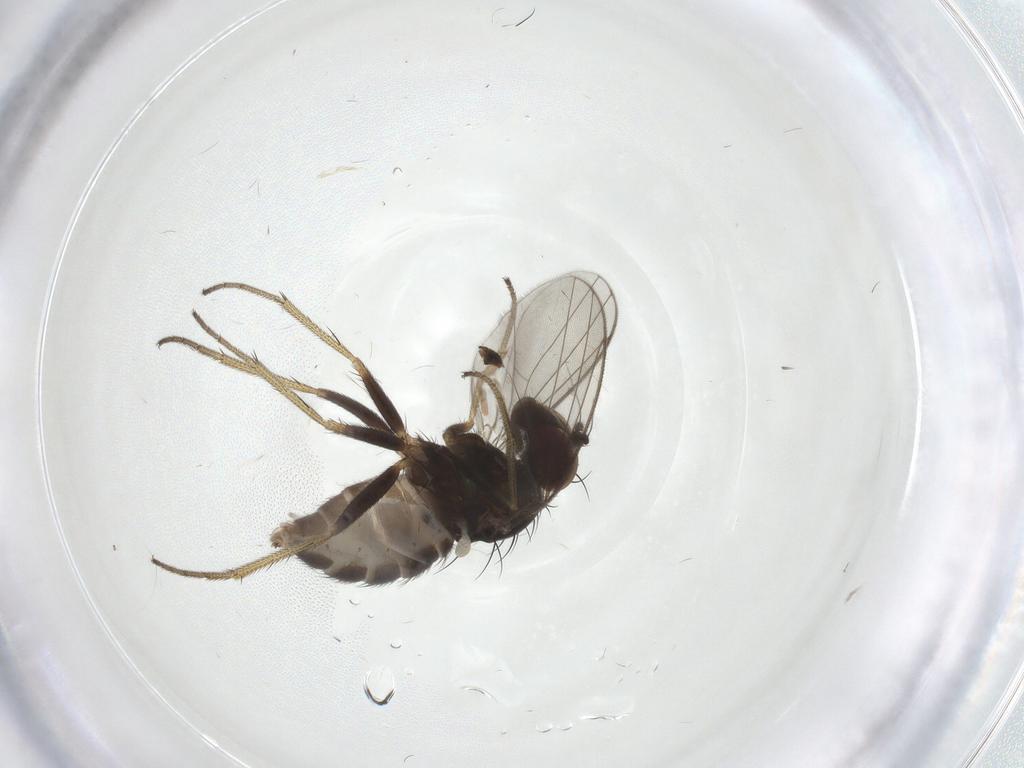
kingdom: Animalia
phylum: Arthropoda
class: Insecta
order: Diptera
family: Dolichopodidae
